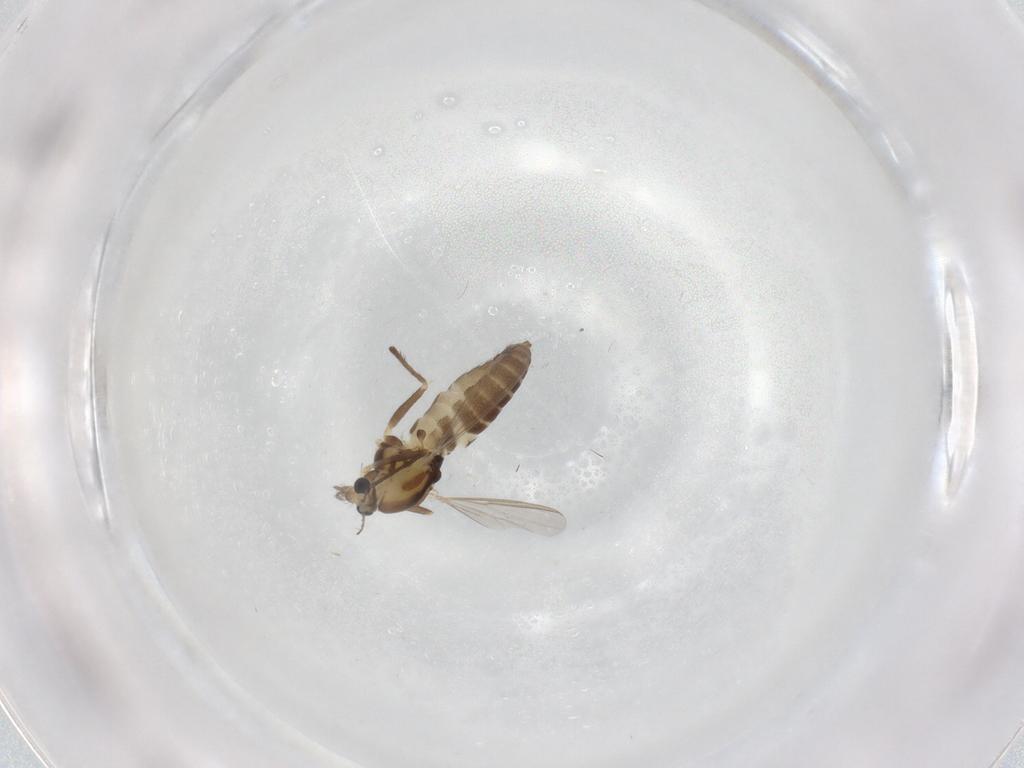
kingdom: Animalia
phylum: Arthropoda
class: Insecta
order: Diptera
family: Chironomidae
